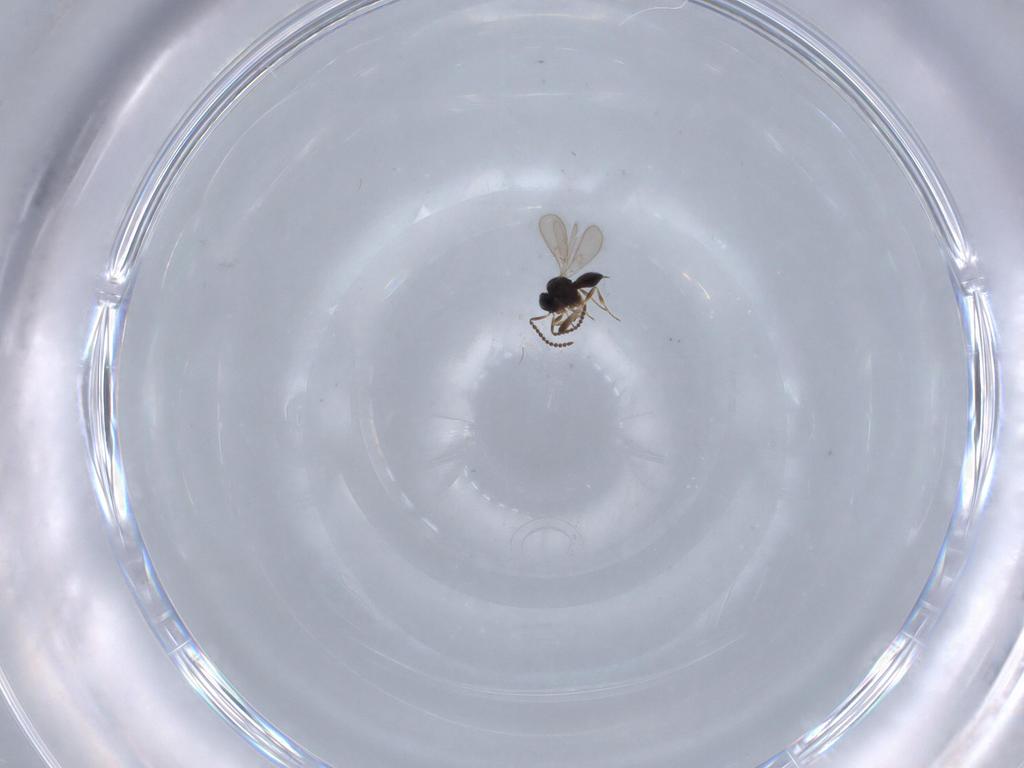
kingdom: Animalia
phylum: Arthropoda
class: Insecta
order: Hymenoptera
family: Scelionidae
